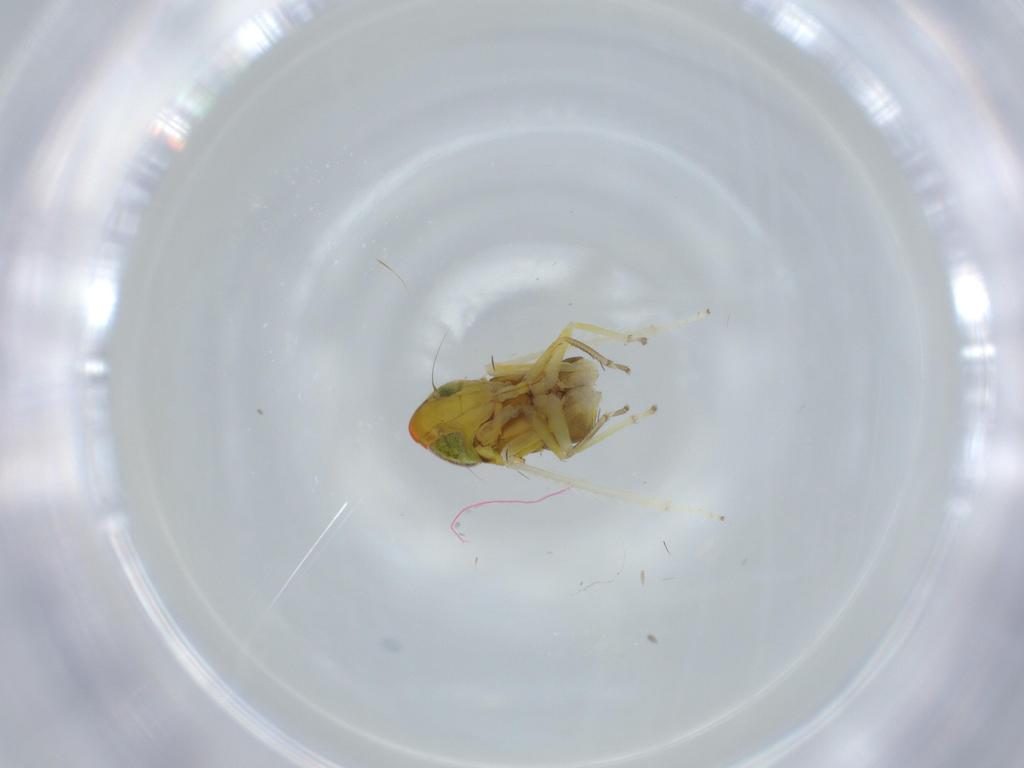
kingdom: Animalia
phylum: Arthropoda
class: Insecta
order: Hemiptera
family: Cicadellidae
